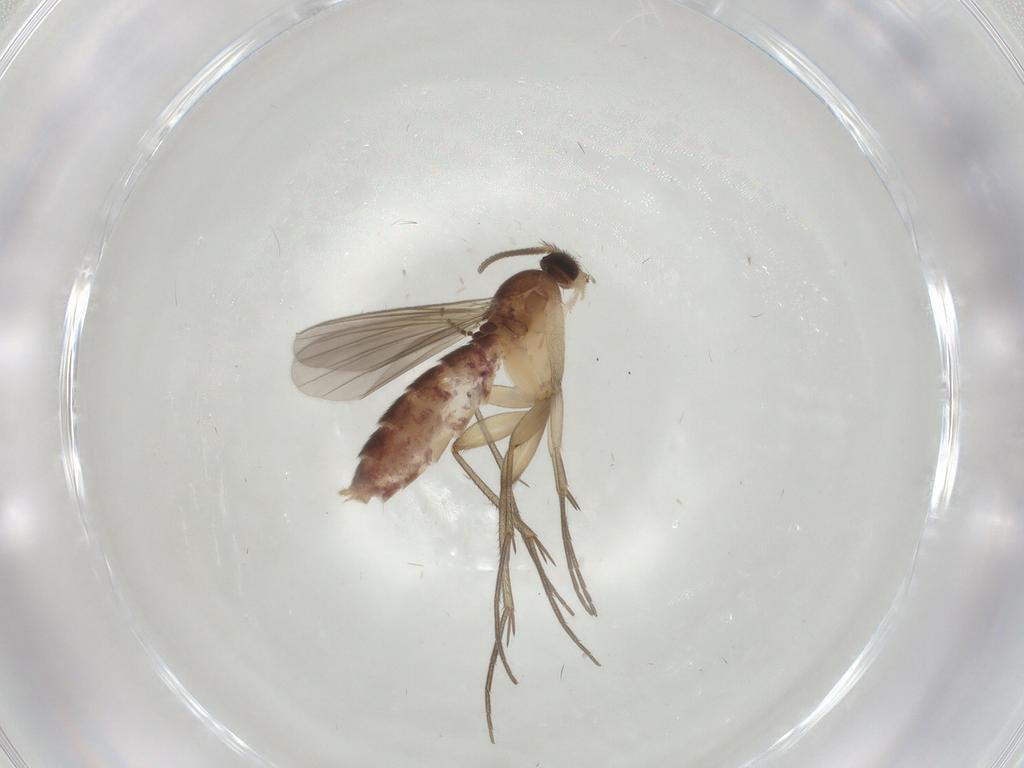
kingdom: Animalia
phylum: Arthropoda
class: Insecta
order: Diptera
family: Mycetophilidae
